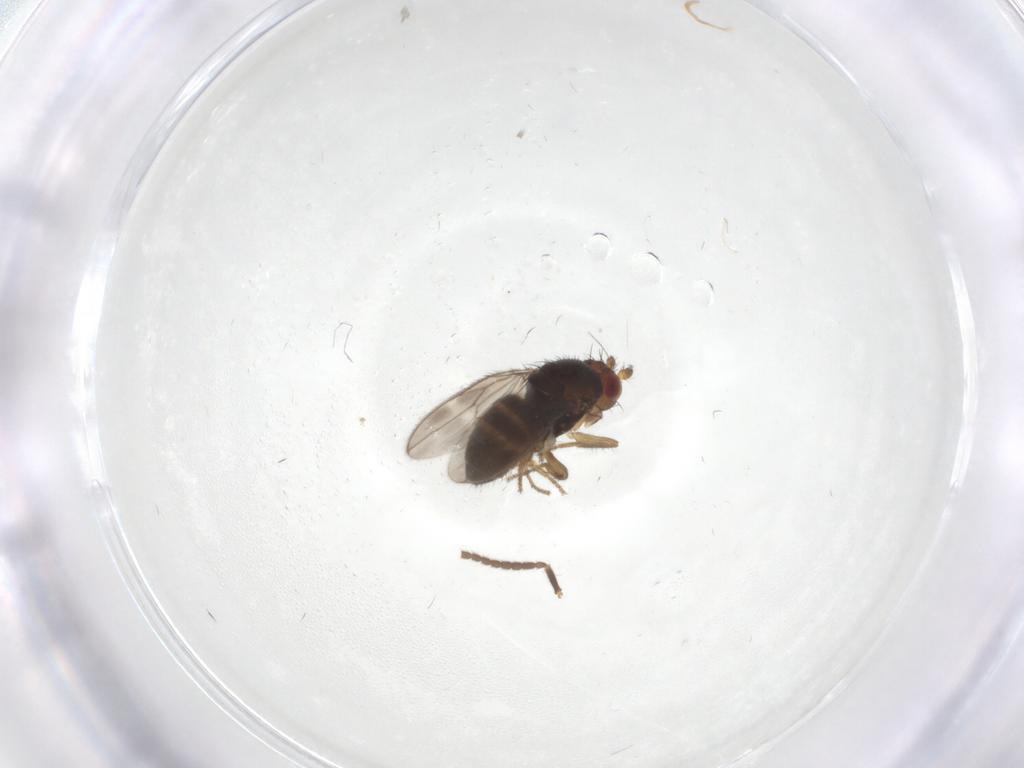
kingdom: Animalia
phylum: Arthropoda
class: Insecta
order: Diptera
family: Sphaeroceridae
